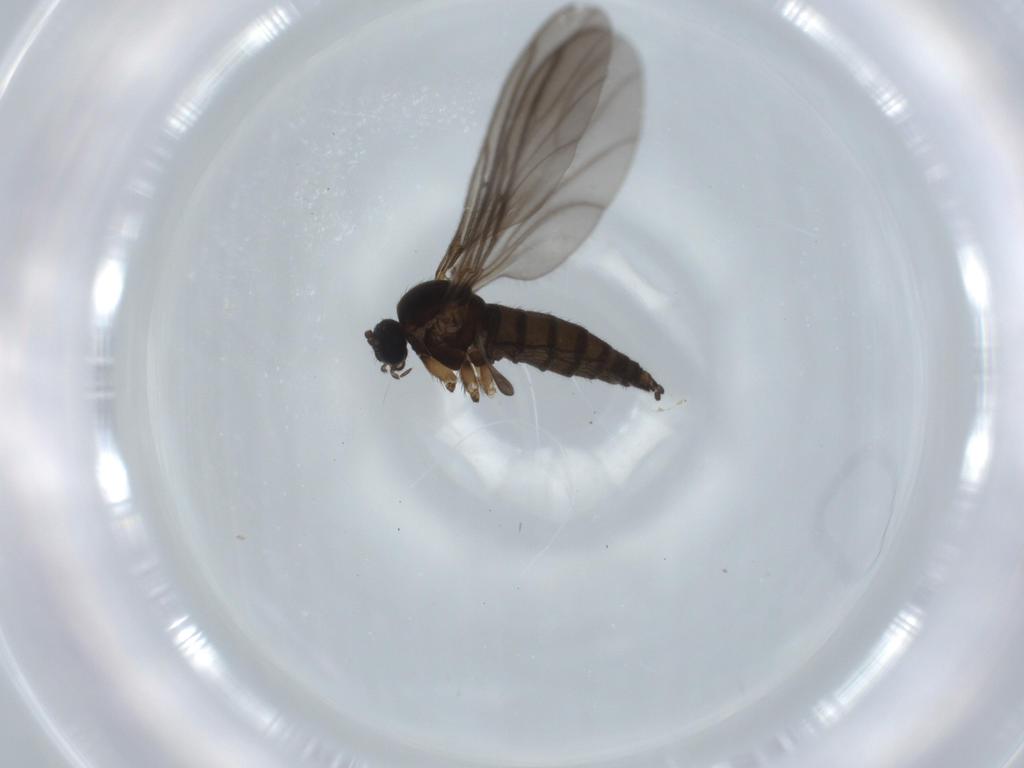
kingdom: Animalia
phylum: Arthropoda
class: Insecta
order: Diptera
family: Sciaridae
